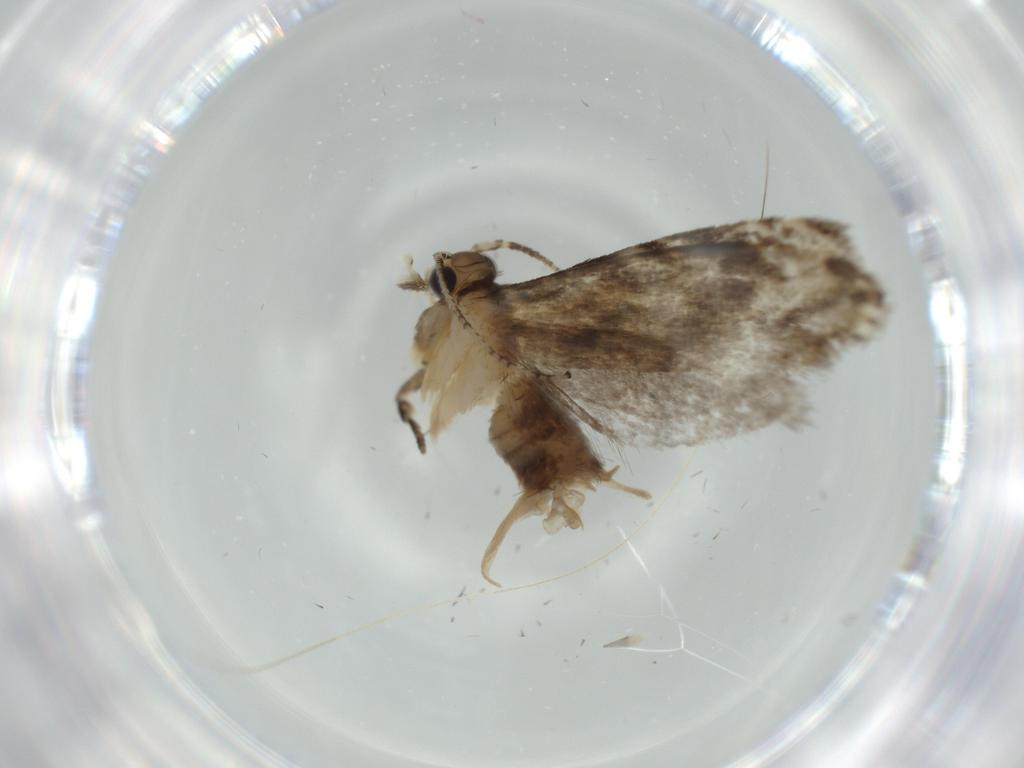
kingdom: Animalia
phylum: Arthropoda
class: Insecta
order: Lepidoptera
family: Tineidae
